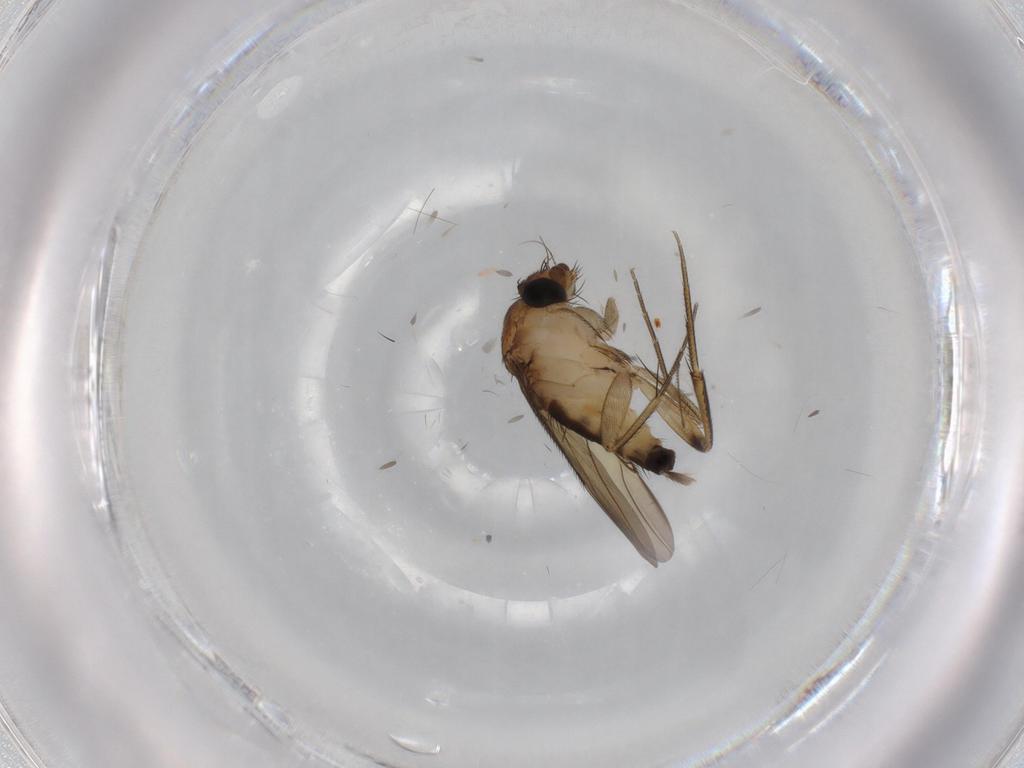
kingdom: Animalia
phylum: Arthropoda
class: Insecta
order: Diptera
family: Phoridae
